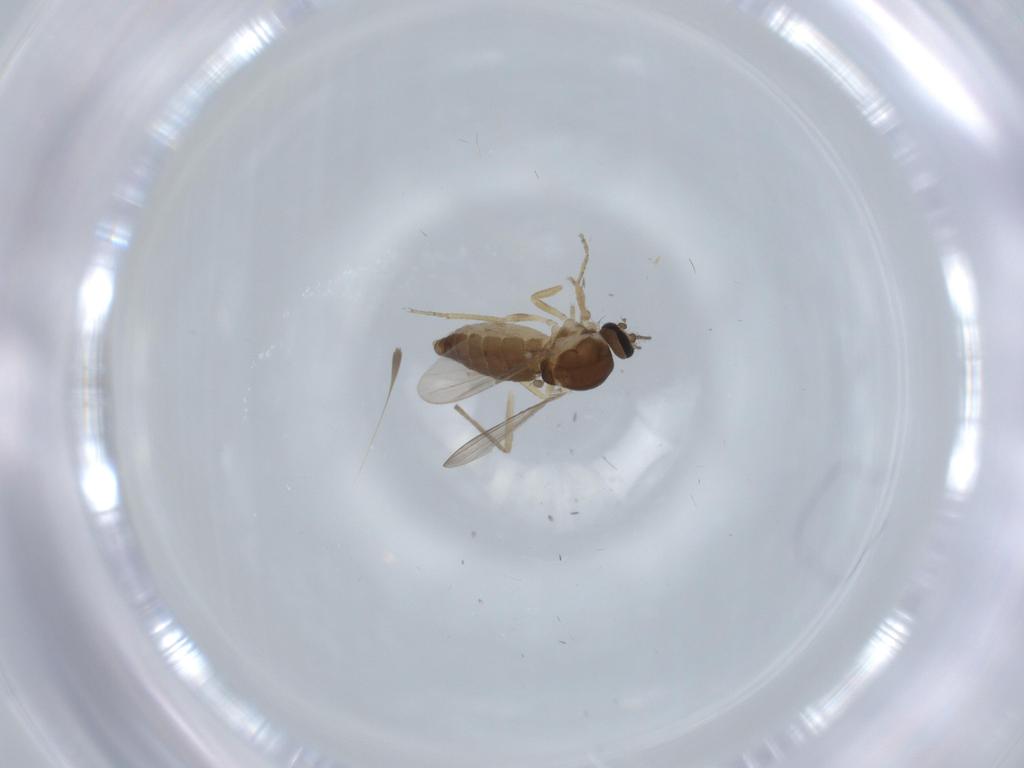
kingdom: Animalia
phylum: Arthropoda
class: Insecta
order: Diptera
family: Ceratopogonidae
